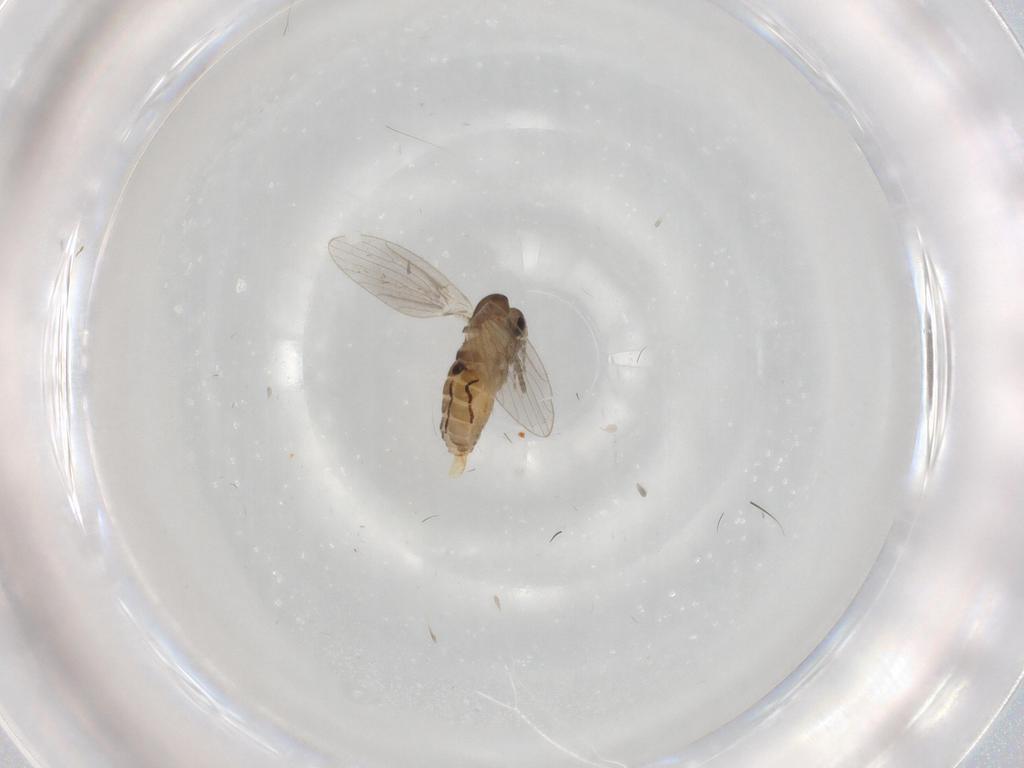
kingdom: Animalia
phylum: Arthropoda
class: Insecta
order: Diptera
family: Psychodidae
